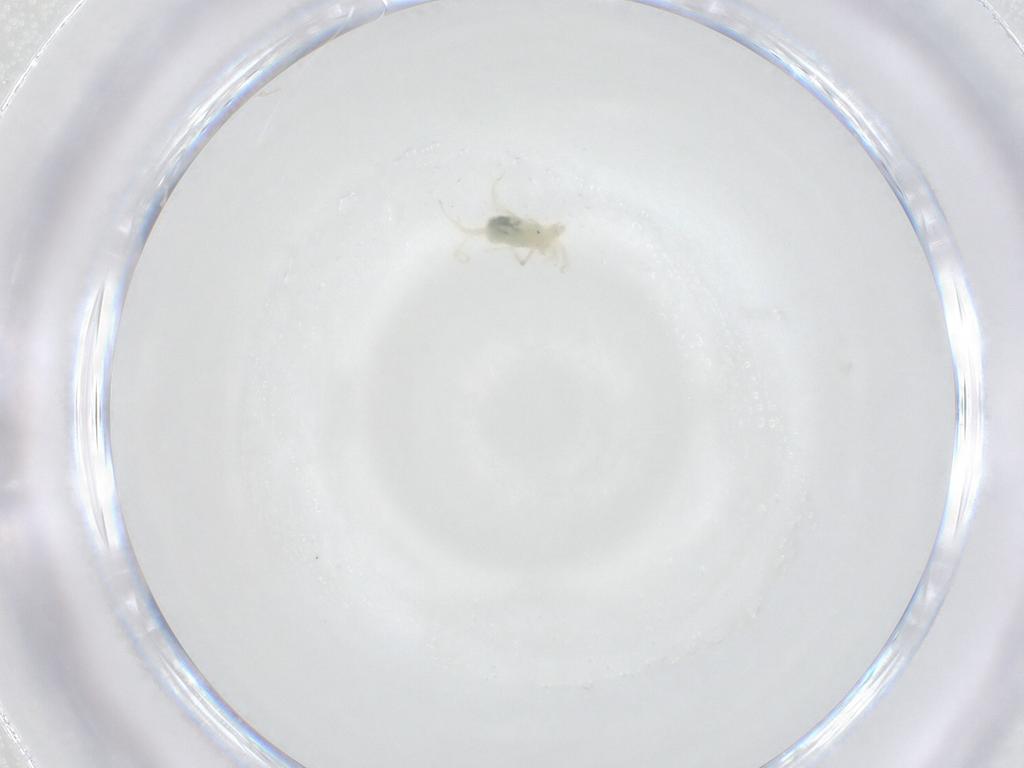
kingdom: Animalia
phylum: Arthropoda
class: Arachnida
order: Trombidiformes
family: Anystidae
